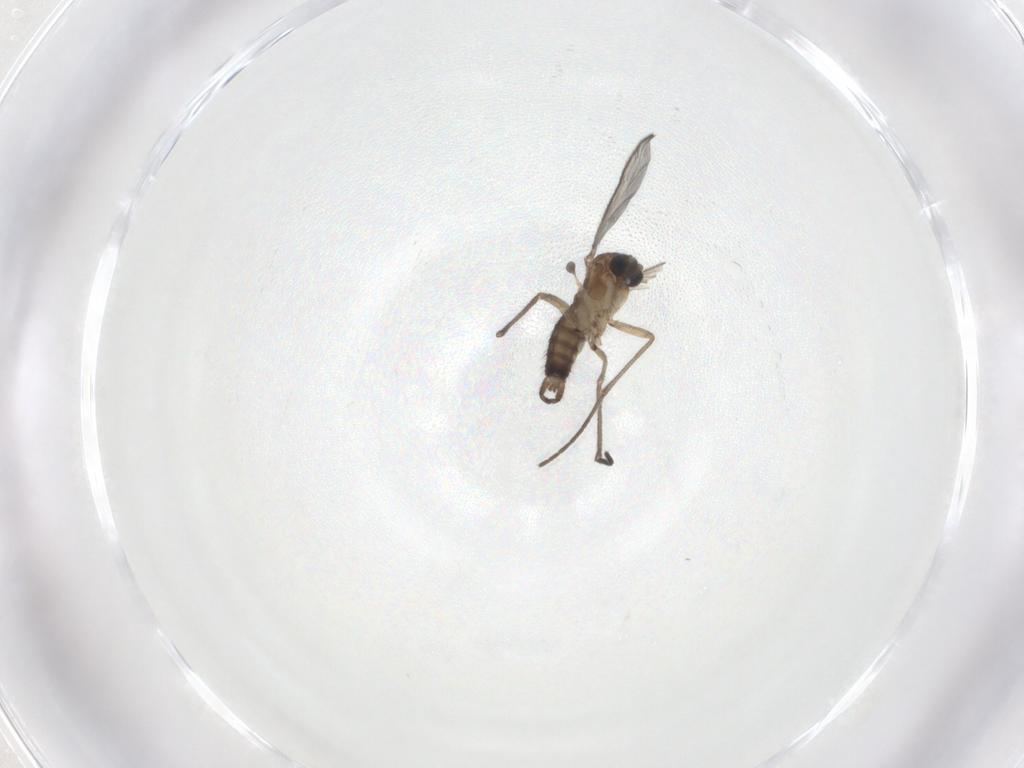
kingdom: Animalia
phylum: Arthropoda
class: Insecta
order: Diptera
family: Sciaridae
